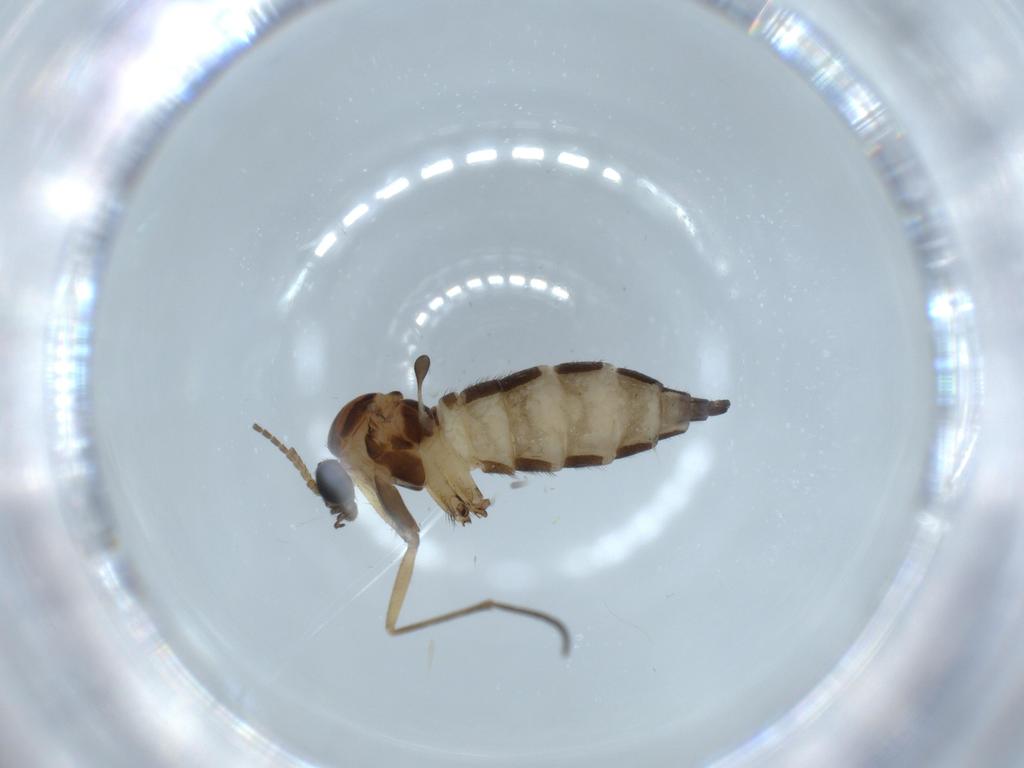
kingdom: Animalia
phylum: Arthropoda
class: Insecta
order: Diptera
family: Sciaridae
